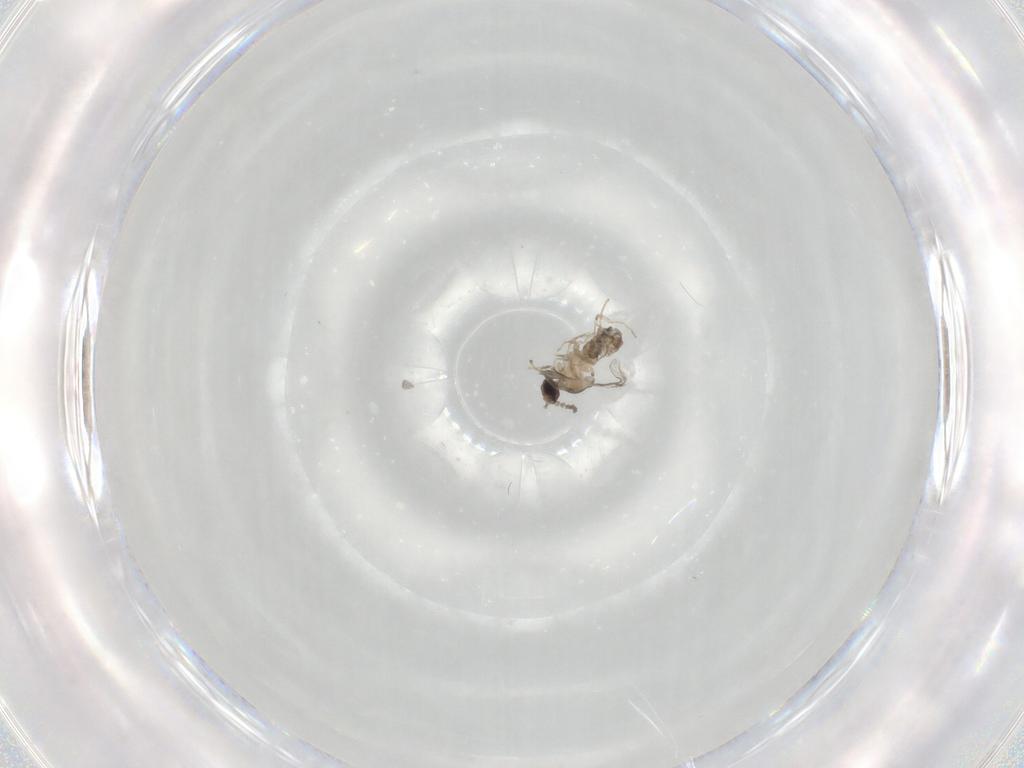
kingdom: Animalia
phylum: Arthropoda
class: Insecta
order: Diptera
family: Cecidomyiidae
